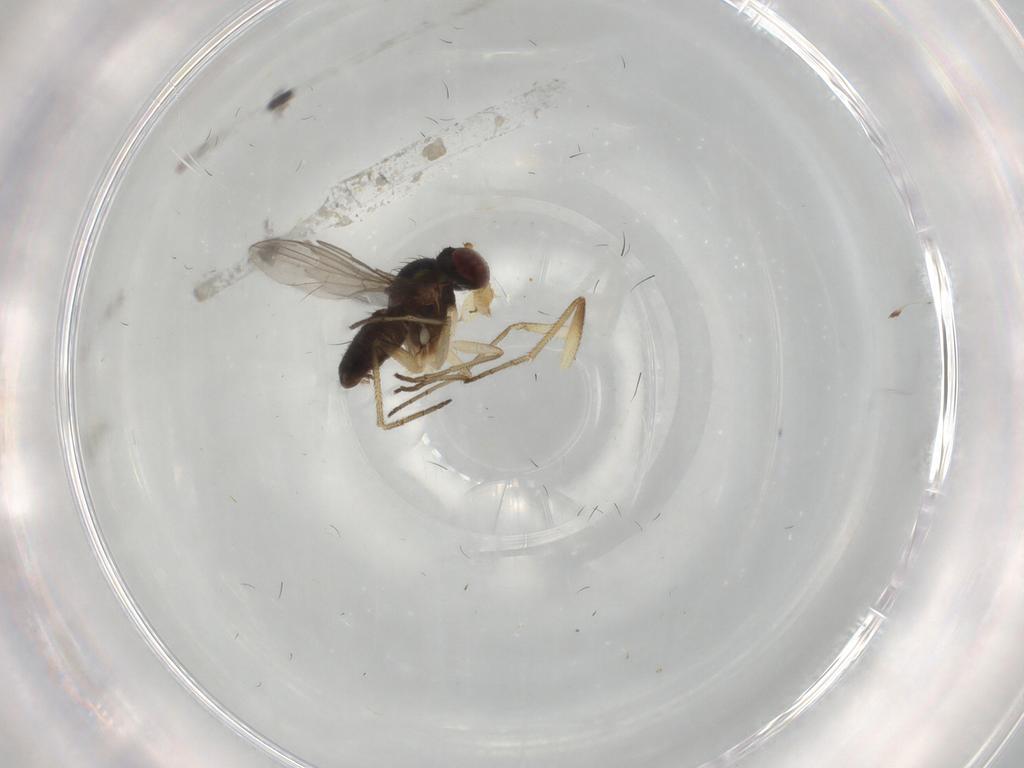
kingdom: Animalia
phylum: Arthropoda
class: Insecta
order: Diptera
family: Dolichopodidae
